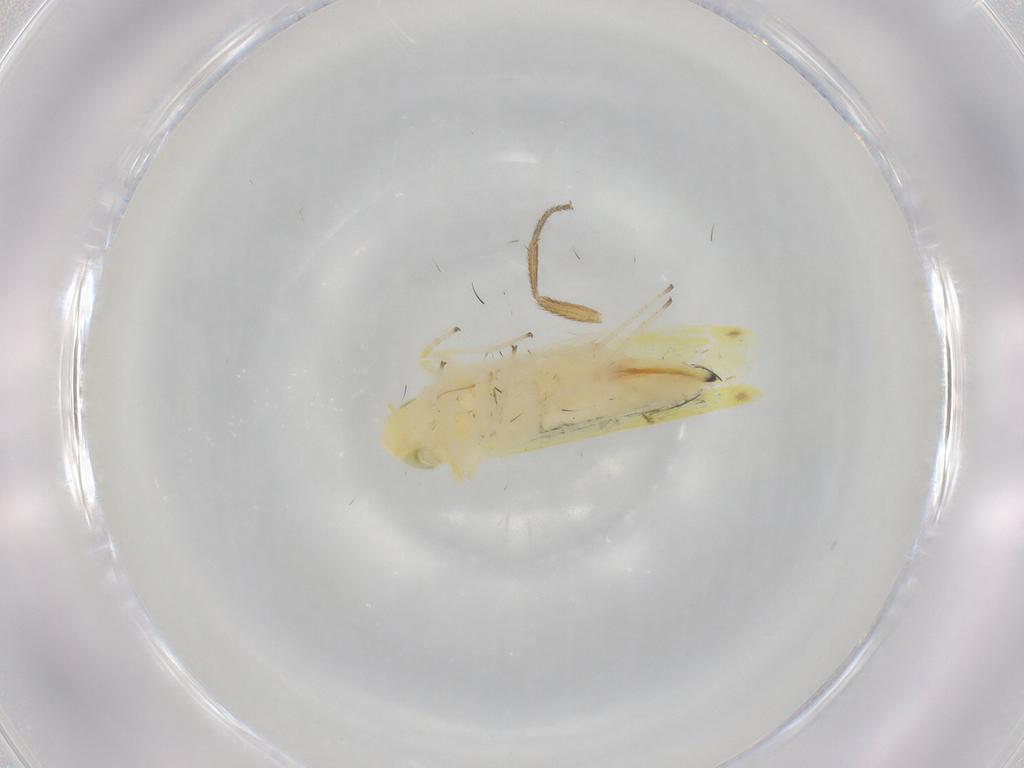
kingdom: Animalia
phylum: Arthropoda
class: Insecta
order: Hemiptera
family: Cicadellidae
